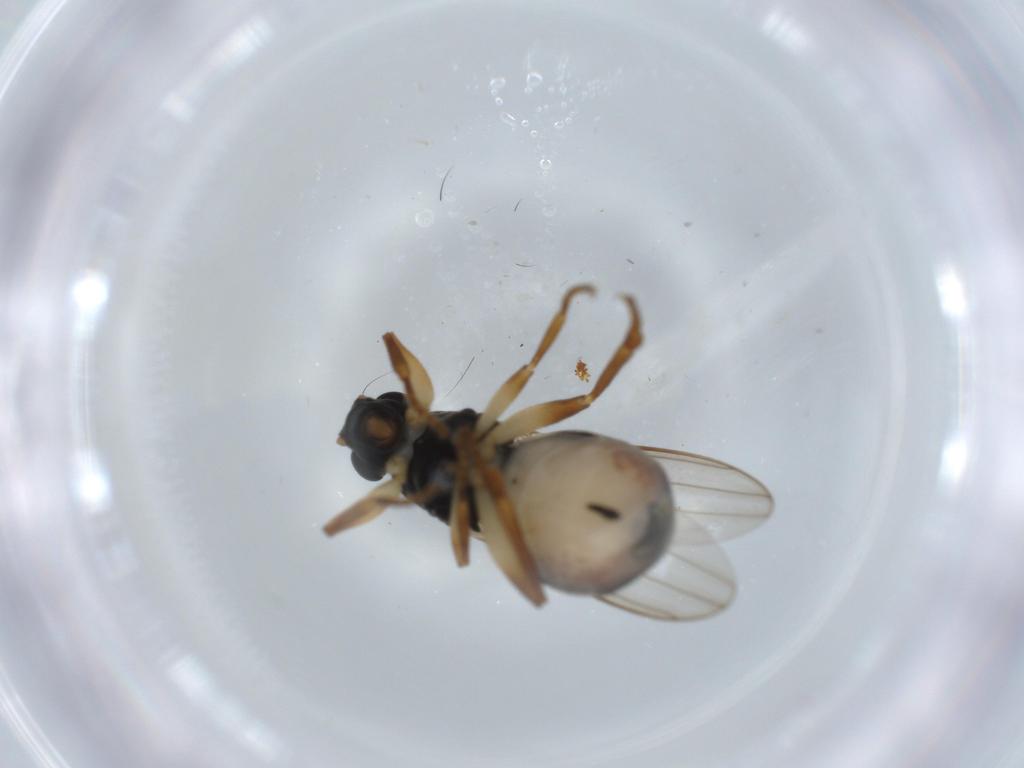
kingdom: Animalia
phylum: Arthropoda
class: Insecta
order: Diptera
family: Sphaeroceridae
